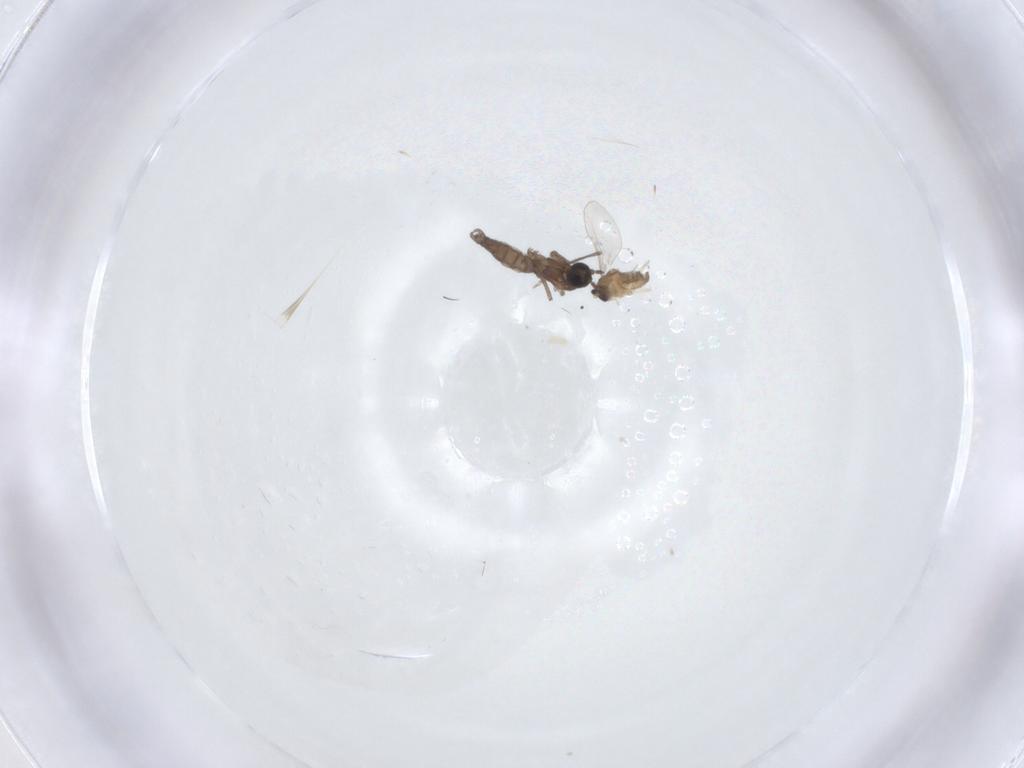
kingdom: Animalia
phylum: Arthropoda
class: Insecta
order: Diptera
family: Sciaridae
